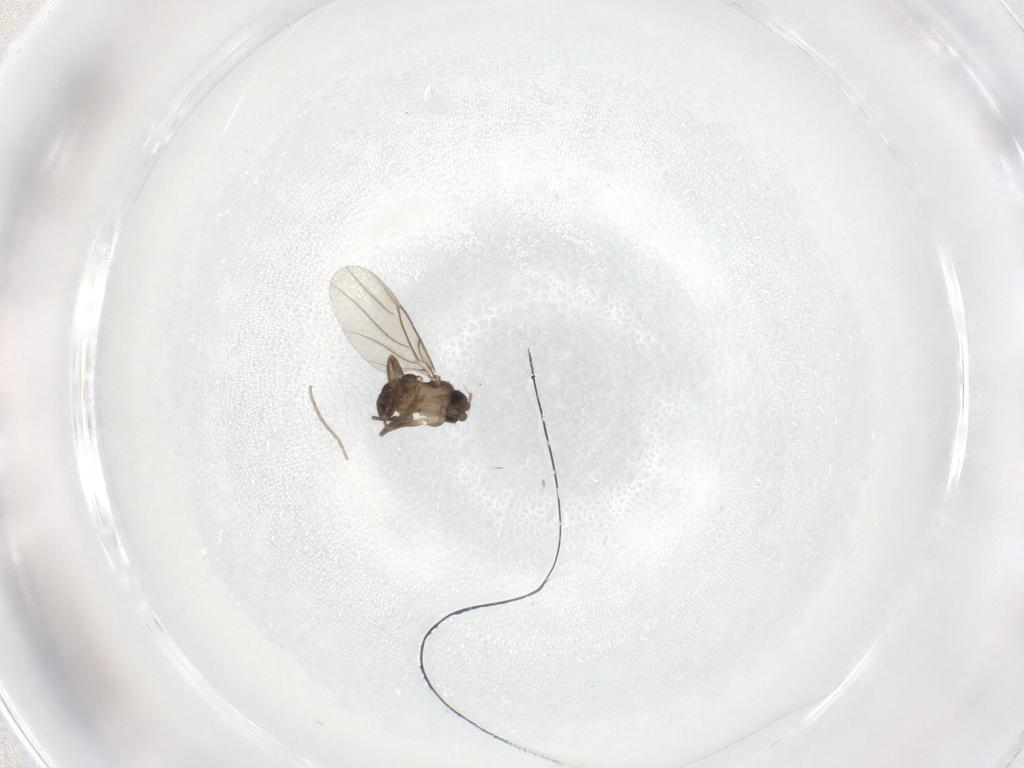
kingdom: Animalia
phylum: Arthropoda
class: Insecta
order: Diptera
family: Phoridae
